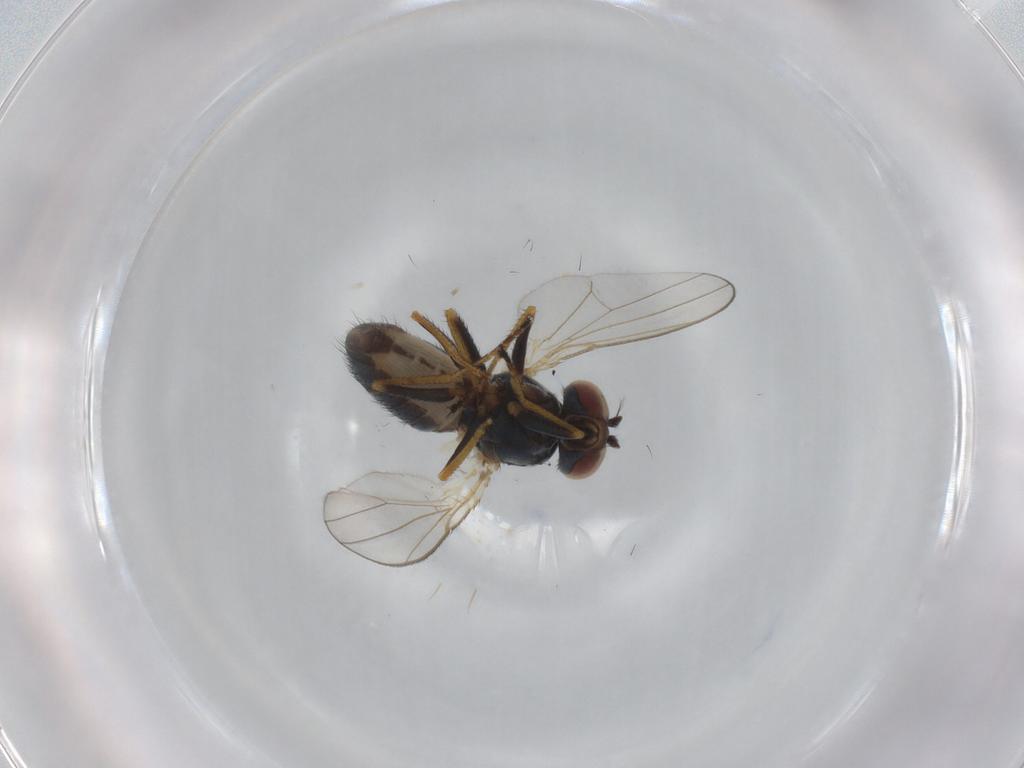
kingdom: Animalia
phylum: Arthropoda
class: Insecta
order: Diptera
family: Ephydridae
